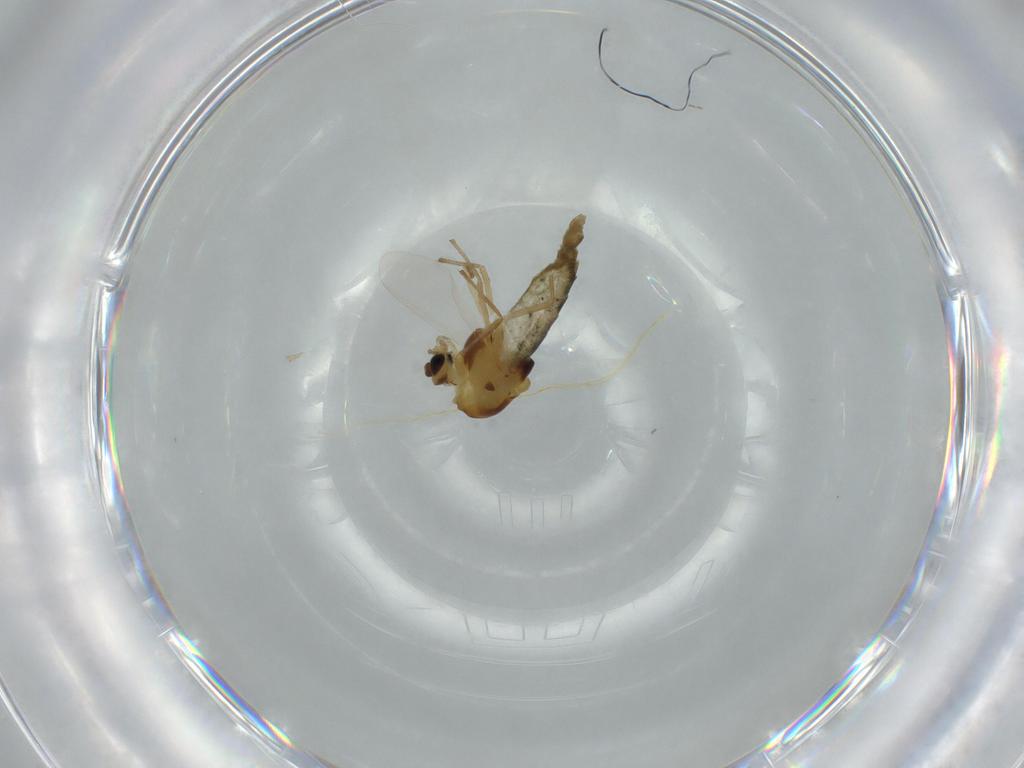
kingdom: Animalia
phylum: Arthropoda
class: Insecta
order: Diptera
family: Chironomidae
